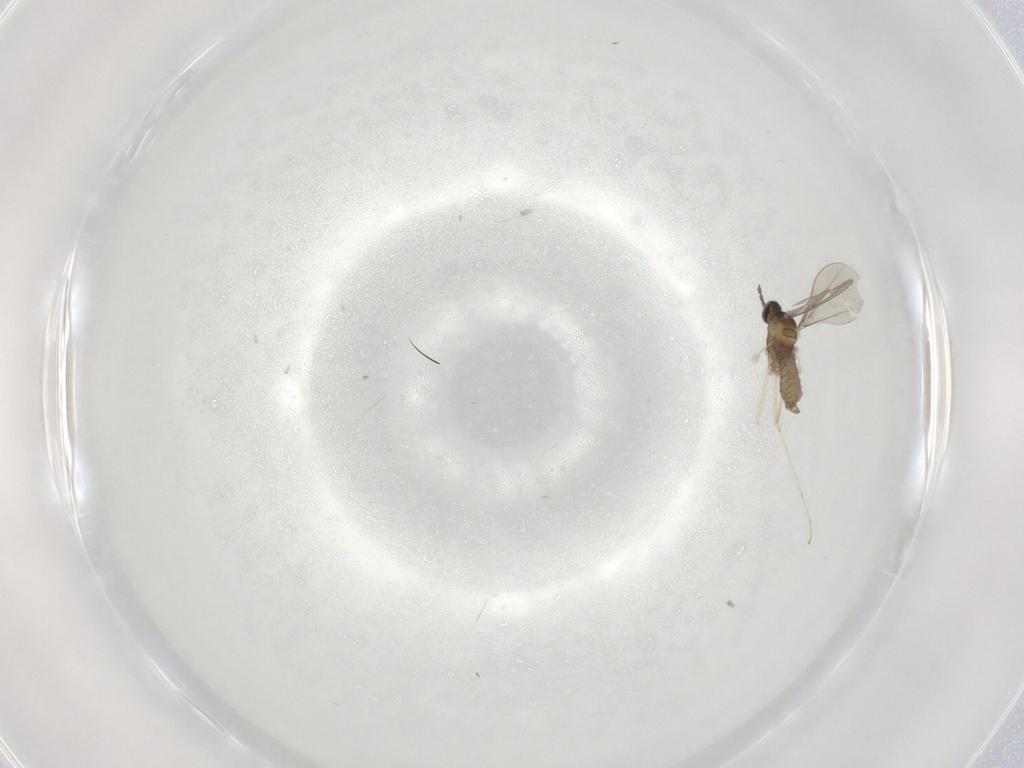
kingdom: Animalia
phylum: Arthropoda
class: Insecta
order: Diptera
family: Cecidomyiidae
